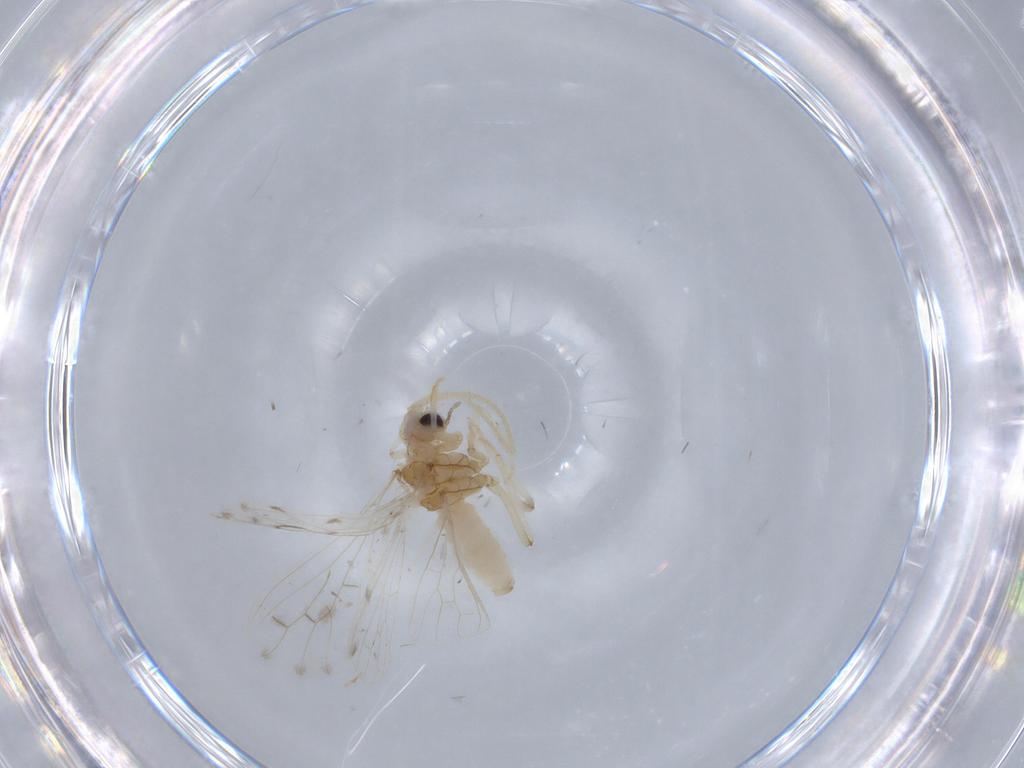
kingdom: Animalia
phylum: Arthropoda
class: Insecta
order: Neuroptera
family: Coniopterygidae
